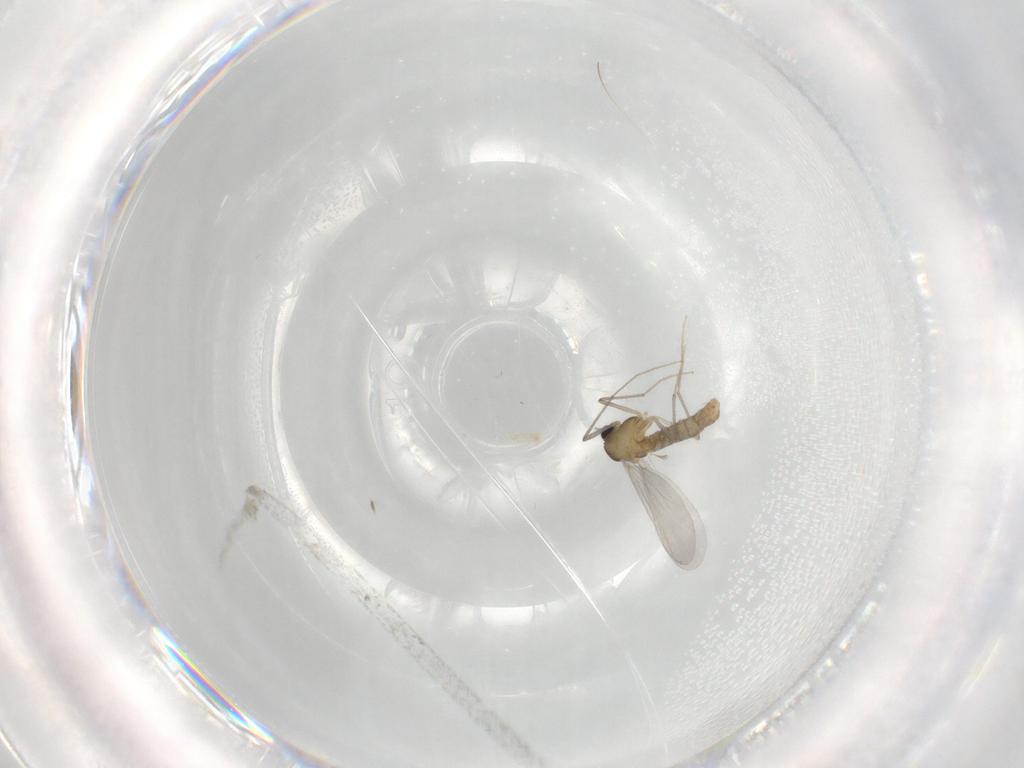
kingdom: Animalia
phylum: Arthropoda
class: Insecta
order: Diptera
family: Chironomidae
